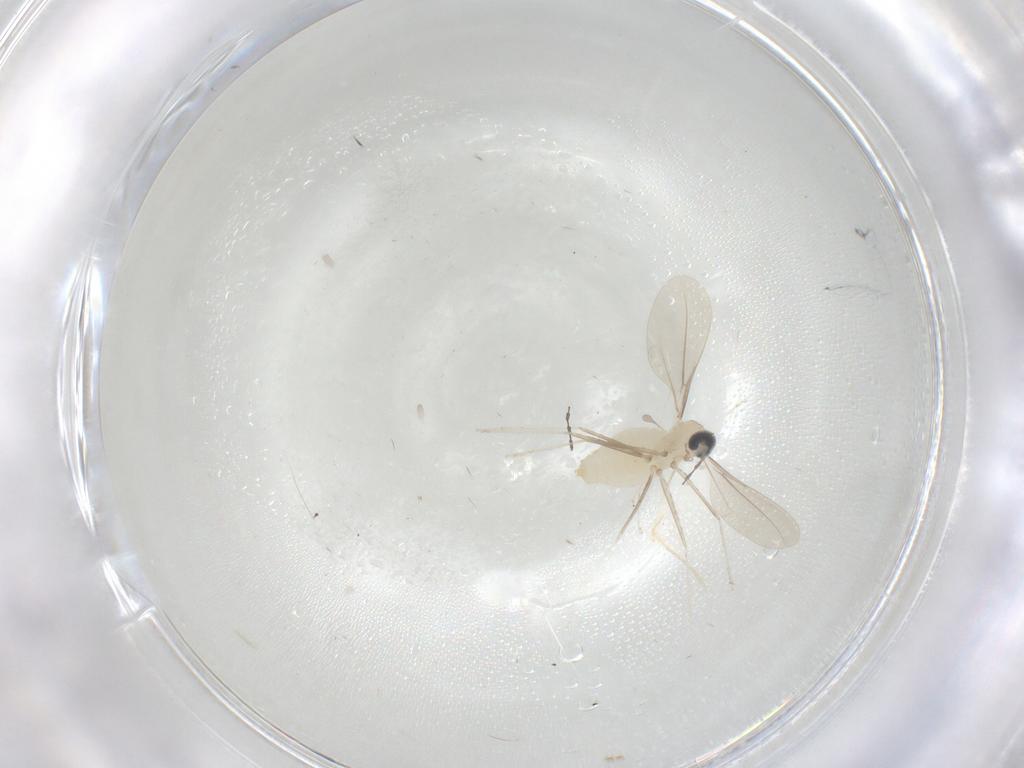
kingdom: Animalia
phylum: Arthropoda
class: Insecta
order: Diptera
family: Cecidomyiidae
